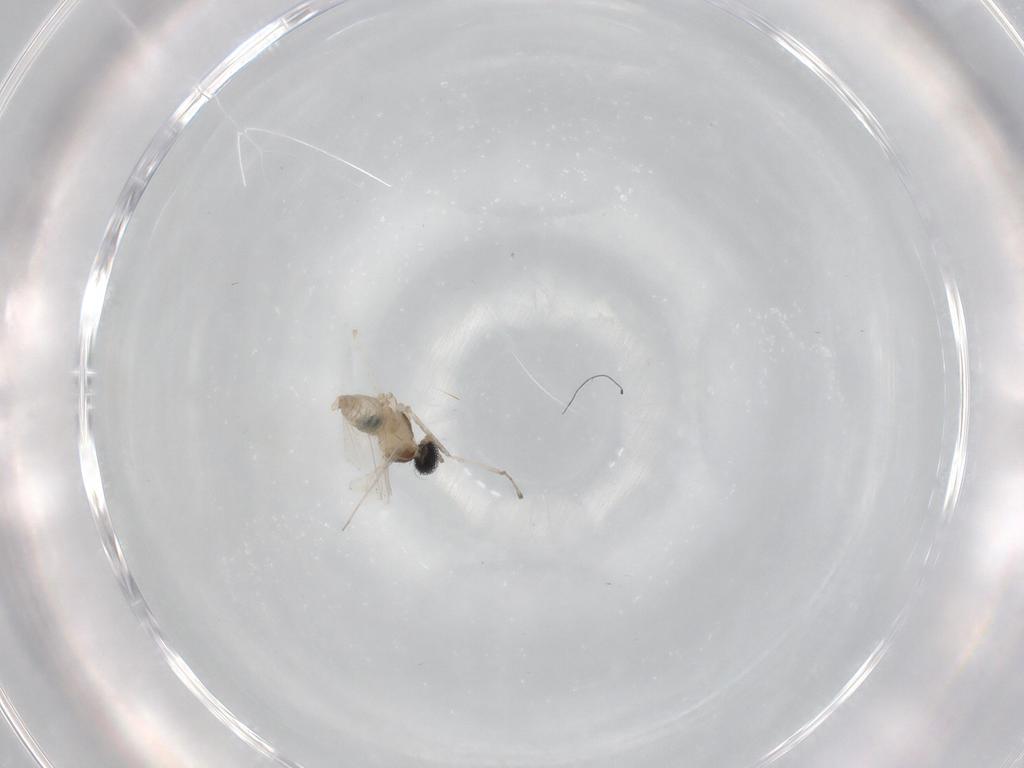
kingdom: Animalia
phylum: Arthropoda
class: Insecta
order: Diptera
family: Cecidomyiidae
